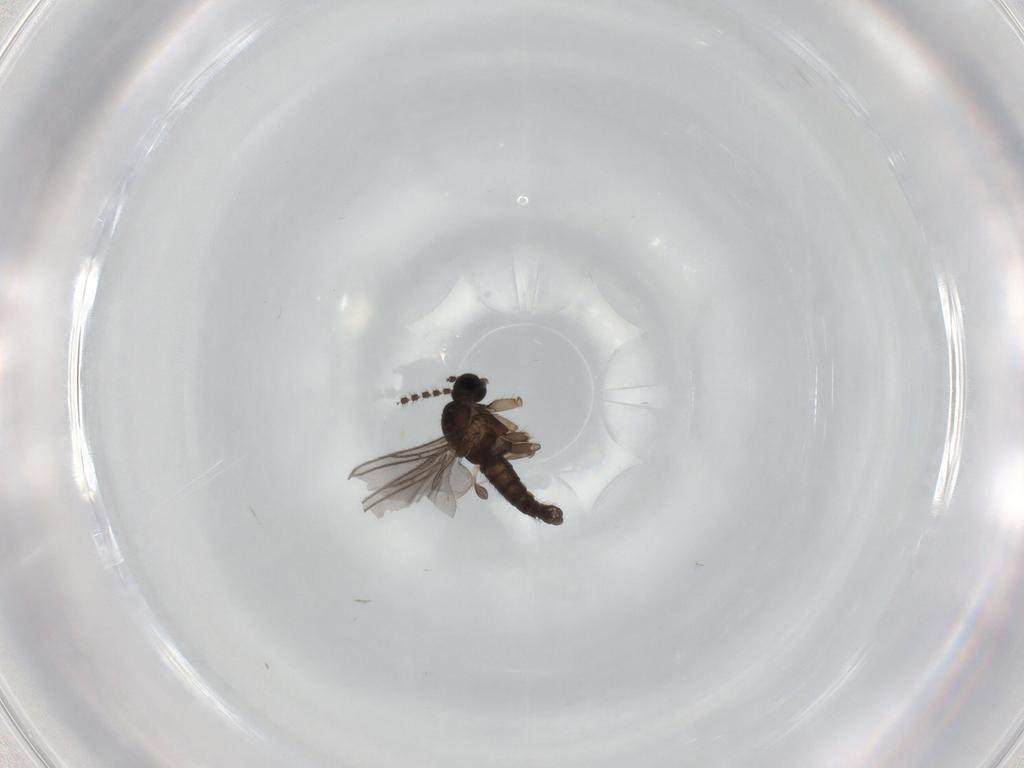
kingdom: Animalia
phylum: Arthropoda
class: Insecta
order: Diptera
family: Sciaridae
